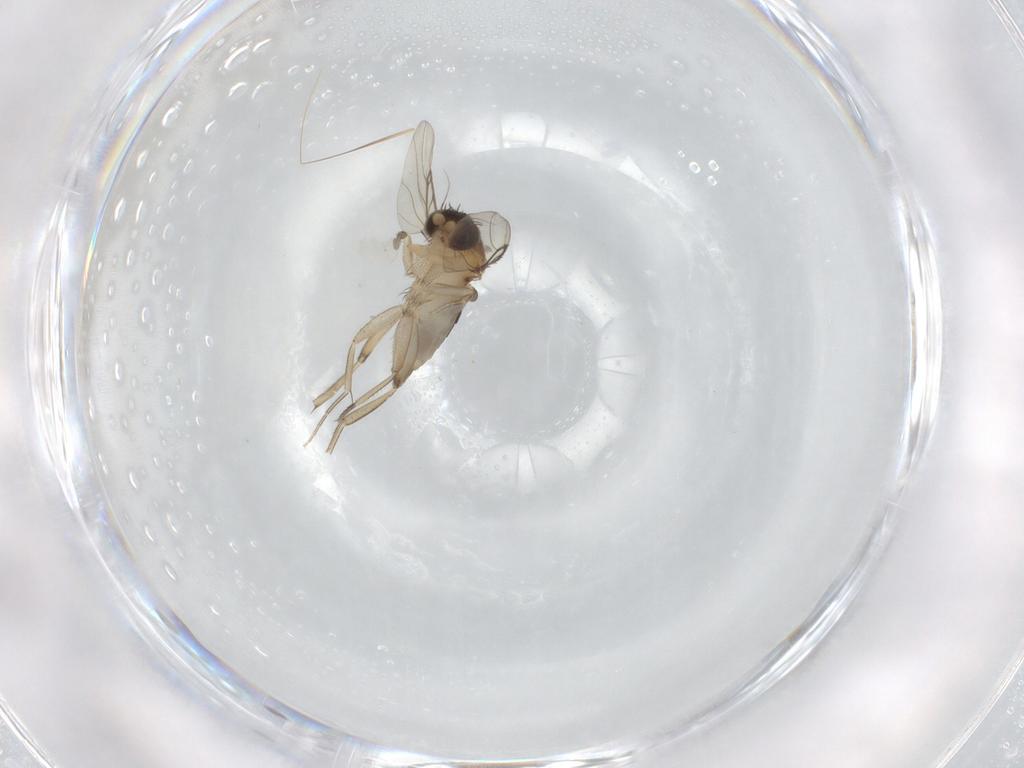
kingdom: Animalia
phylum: Arthropoda
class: Insecta
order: Diptera
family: Phoridae
